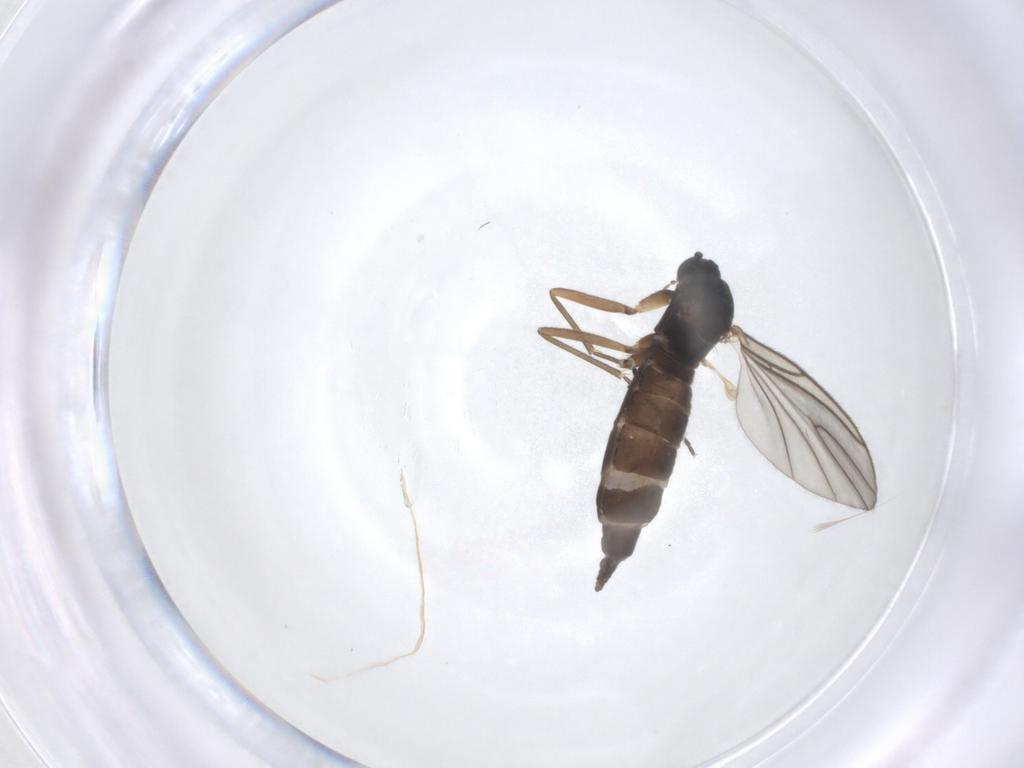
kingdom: Animalia
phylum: Arthropoda
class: Insecta
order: Diptera
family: Sciaridae
